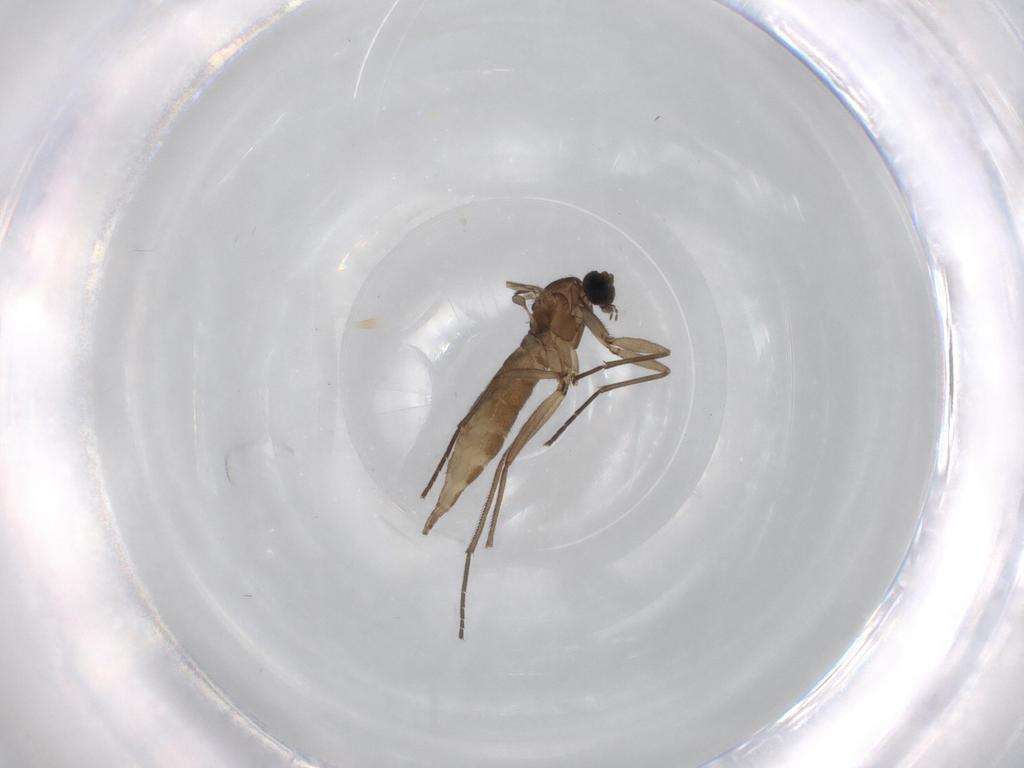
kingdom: Animalia
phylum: Arthropoda
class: Insecta
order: Diptera
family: Sciaridae
